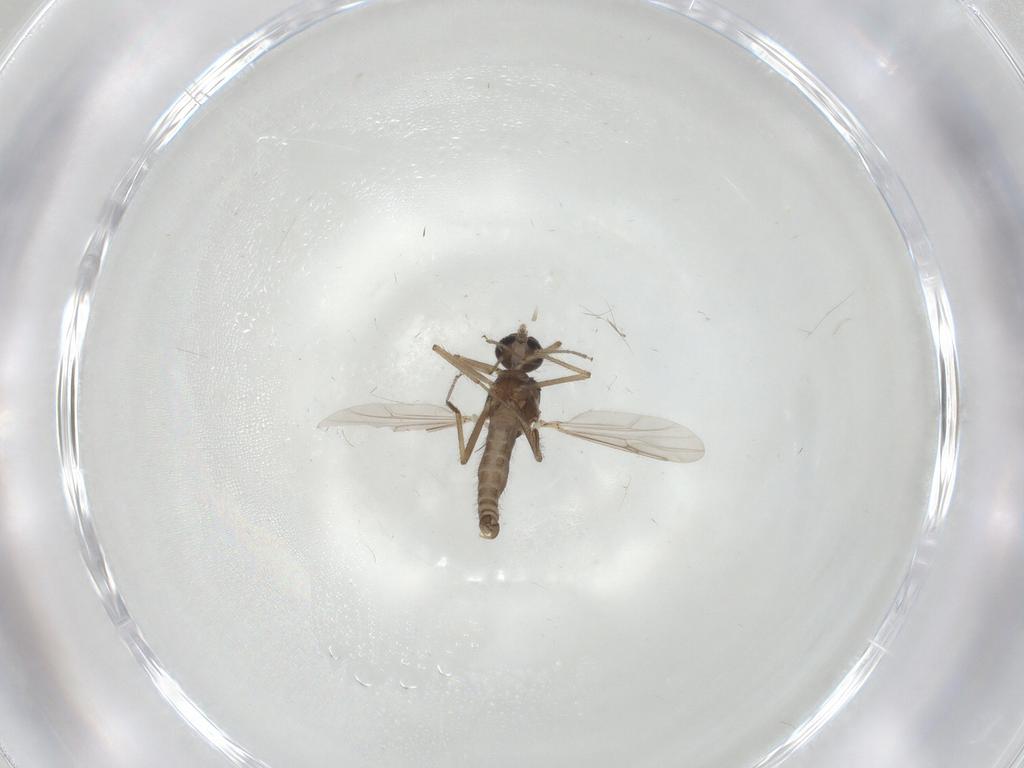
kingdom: Animalia
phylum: Arthropoda
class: Insecta
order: Diptera
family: Ceratopogonidae
